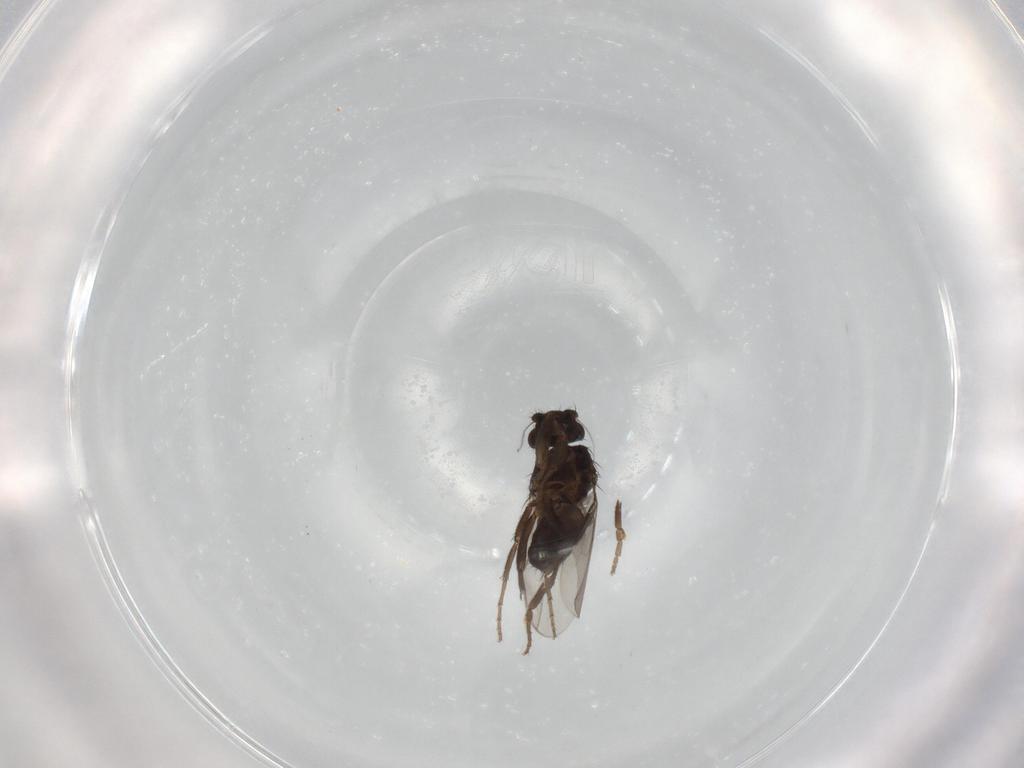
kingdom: Animalia
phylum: Arthropoda
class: Insecta
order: Diptera
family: Sphaeroceridae
